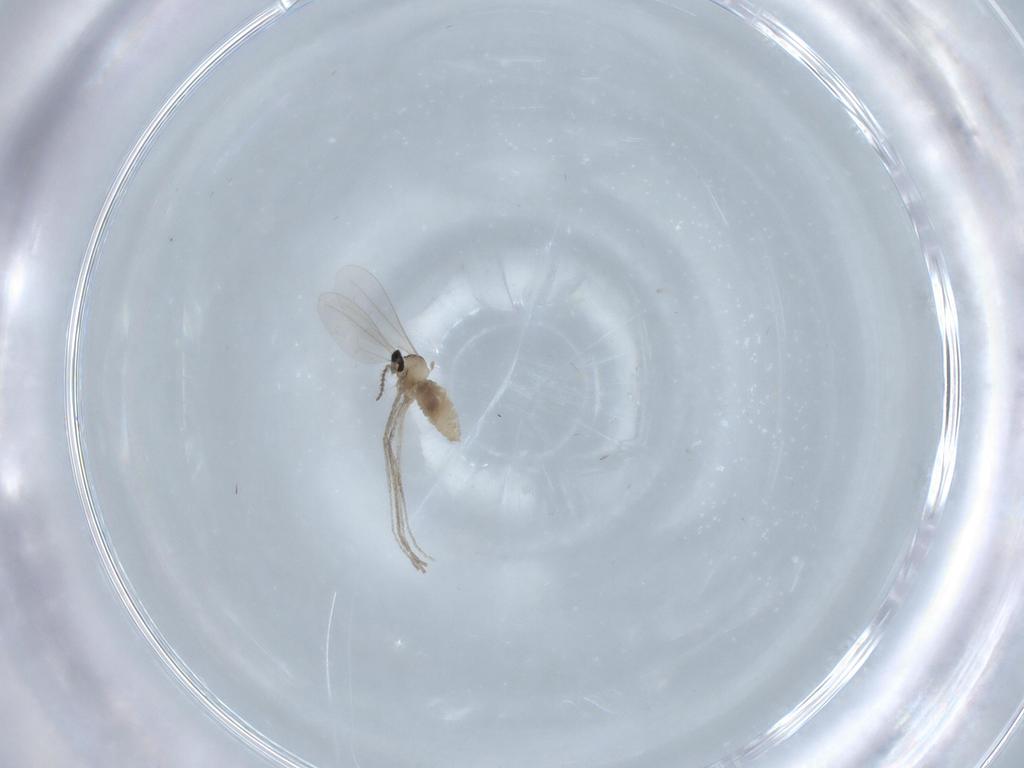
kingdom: Animalia
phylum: Arthropoda
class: Insecta
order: Diptera
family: Cecidomyiidae
